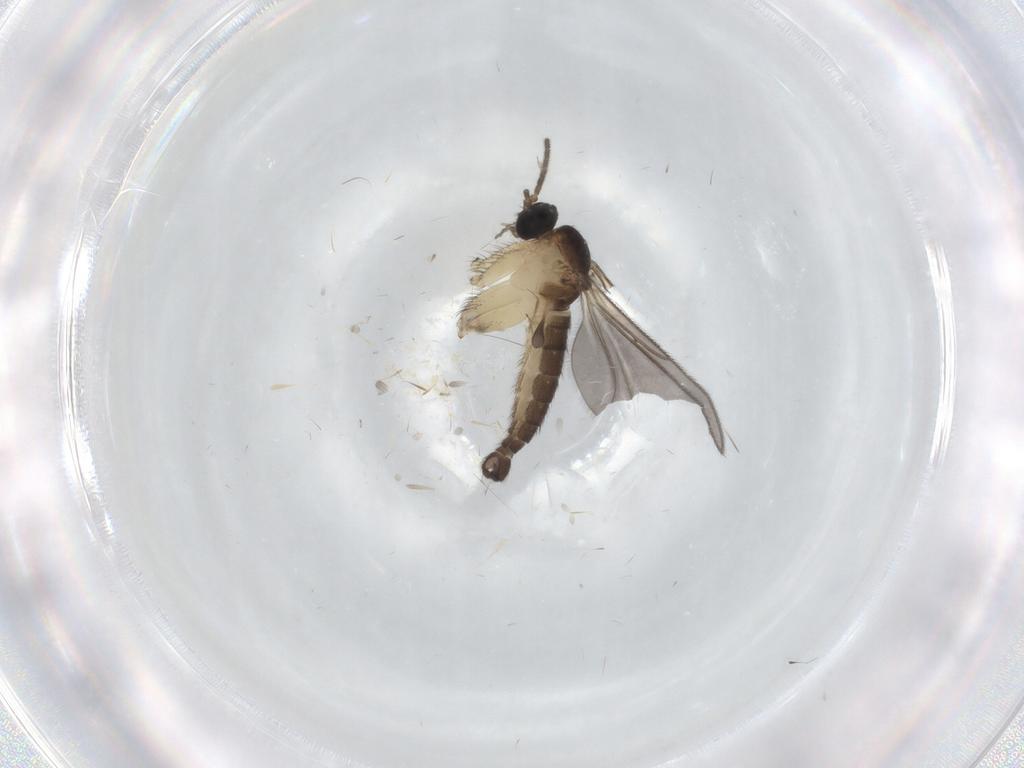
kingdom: Animalia
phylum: Arthropoda
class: Insecta
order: Diptera
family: Sciaridae
